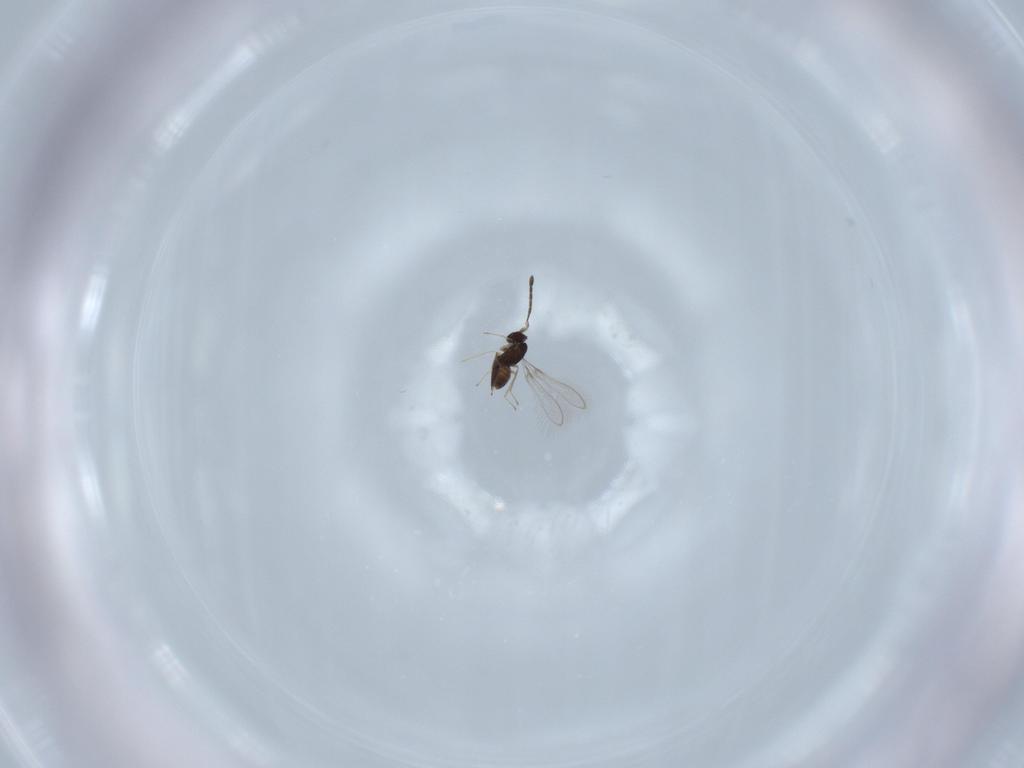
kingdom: Animalia
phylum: Arthropoda
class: Insecta
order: Hymenoptera
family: Mymaridae
